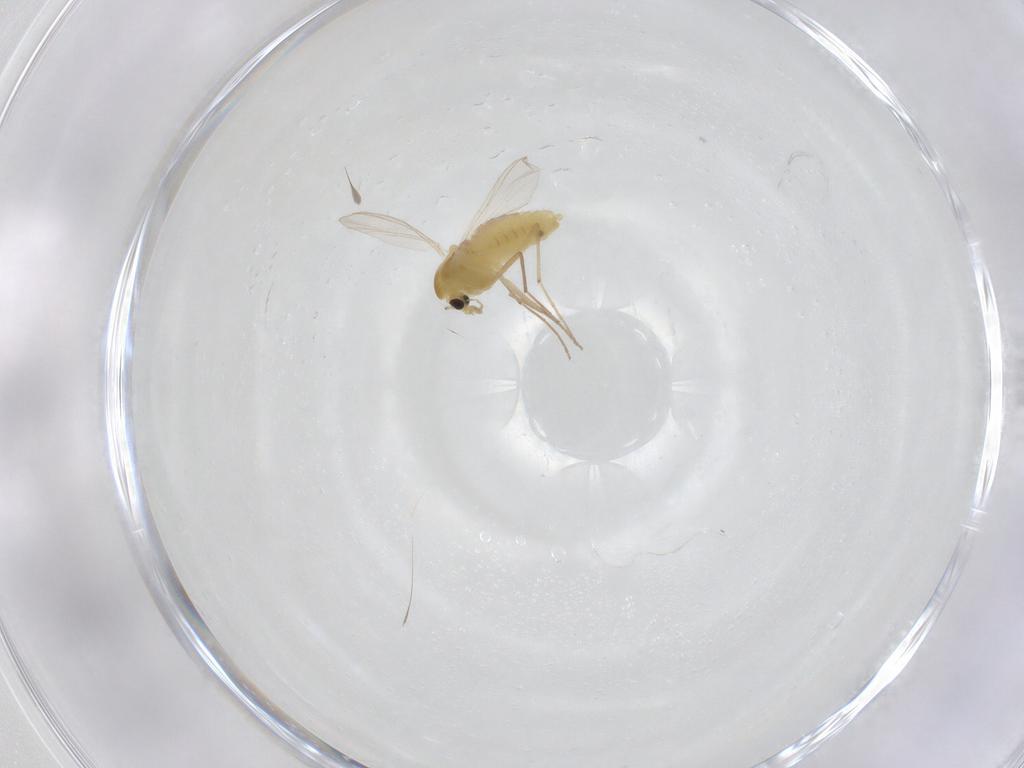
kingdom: Animalia
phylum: Arthropoda
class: Insecta
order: Diptera
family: Chironomidae
